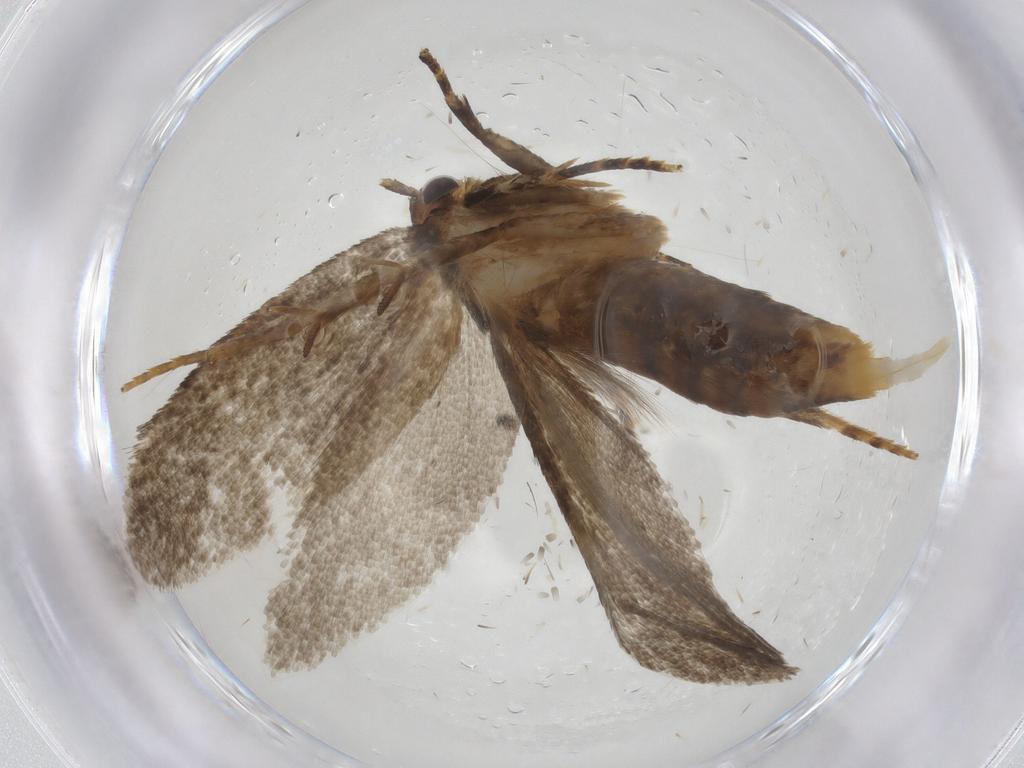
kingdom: Animalia
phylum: Arthropoda
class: Insecta
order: Lepidoptera
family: Oecophoridae
